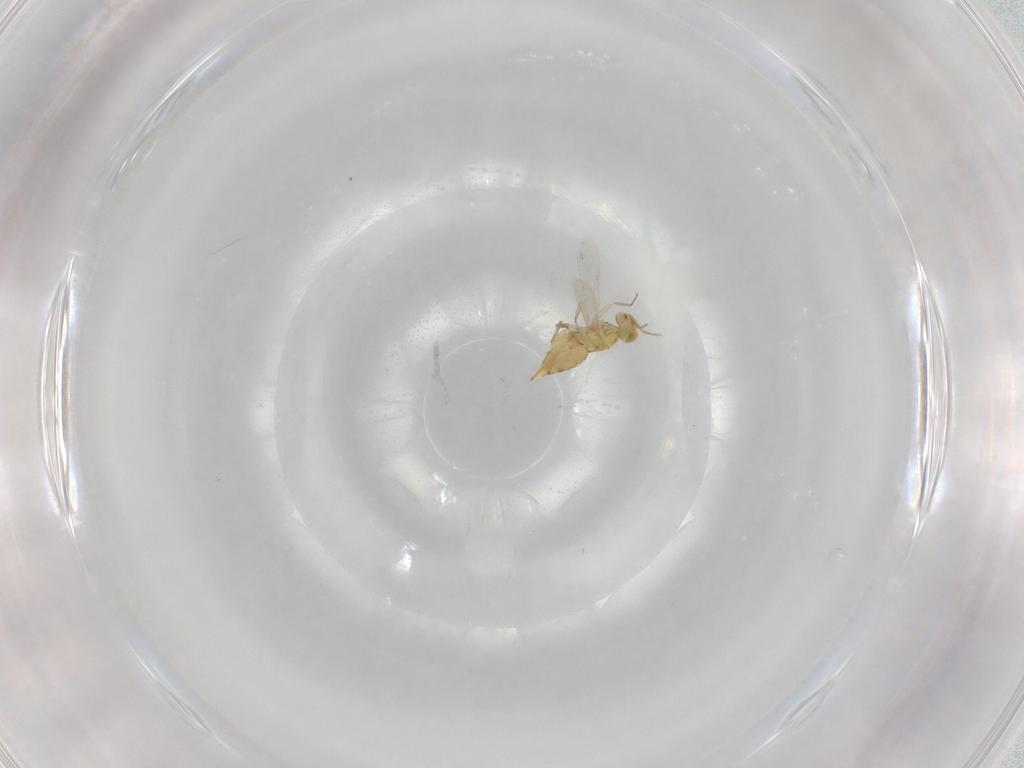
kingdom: Animalia
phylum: Arthropoda
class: Insecta
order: Hymenoptera
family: Aphelinidae
